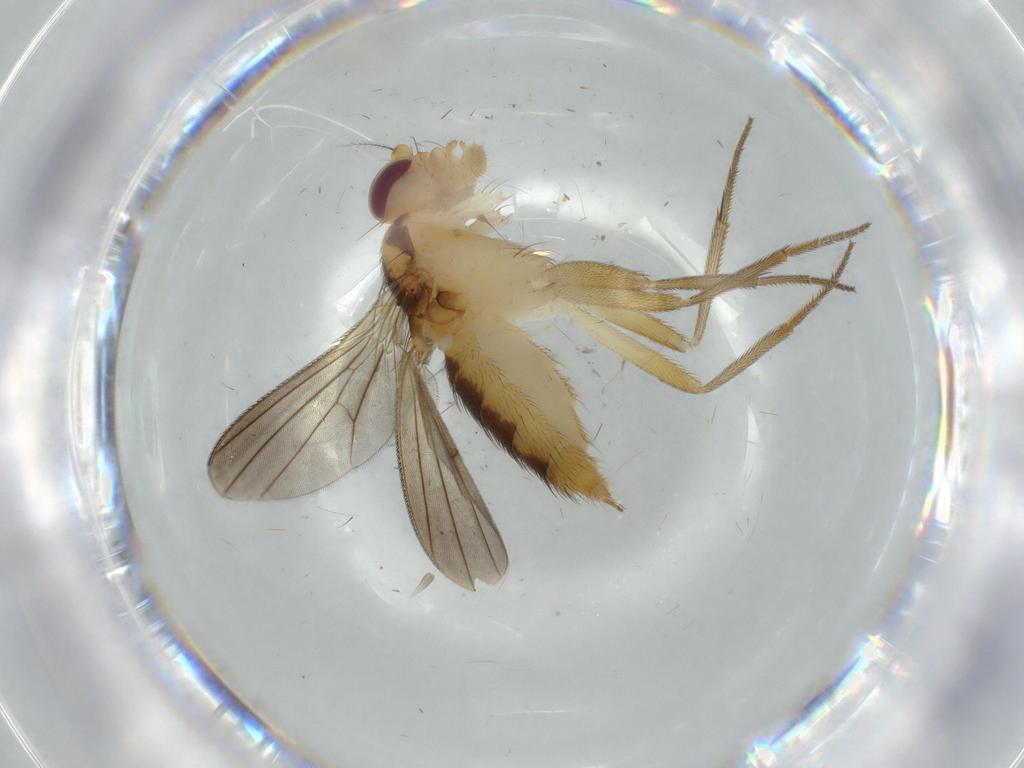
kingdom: Animalia
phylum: Arthropoda
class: Insecta
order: Diptera
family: Clusiidae
